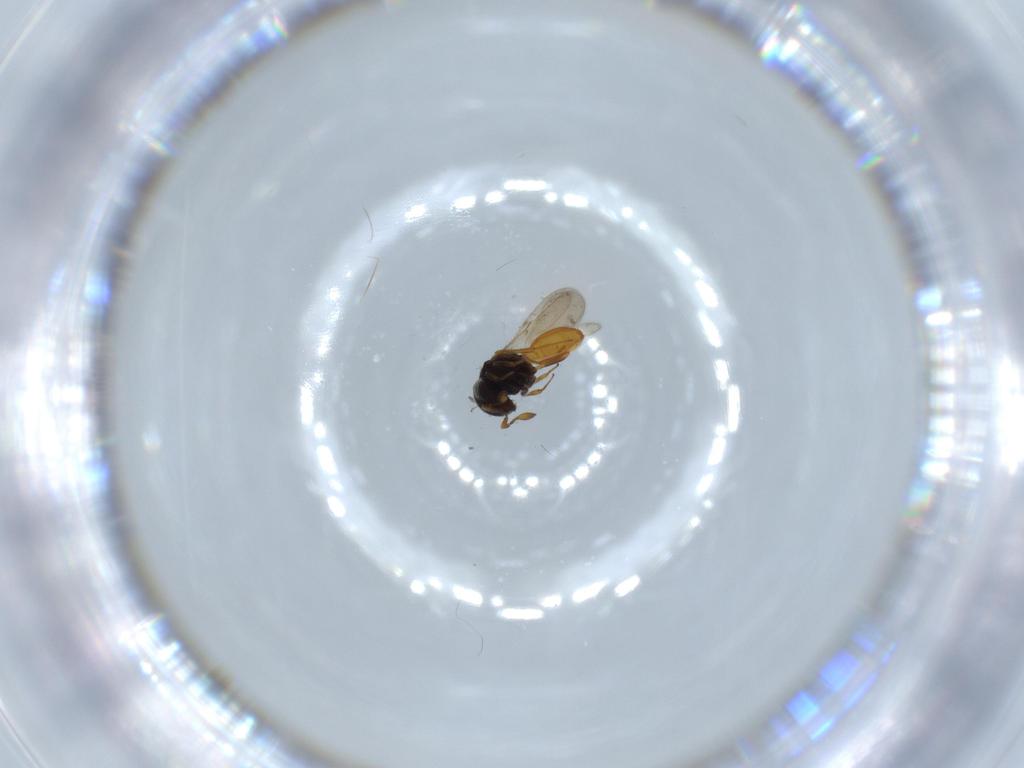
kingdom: Animalia
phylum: Arthropoda
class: Insecta
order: Hymenoptera
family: Scelionidae
